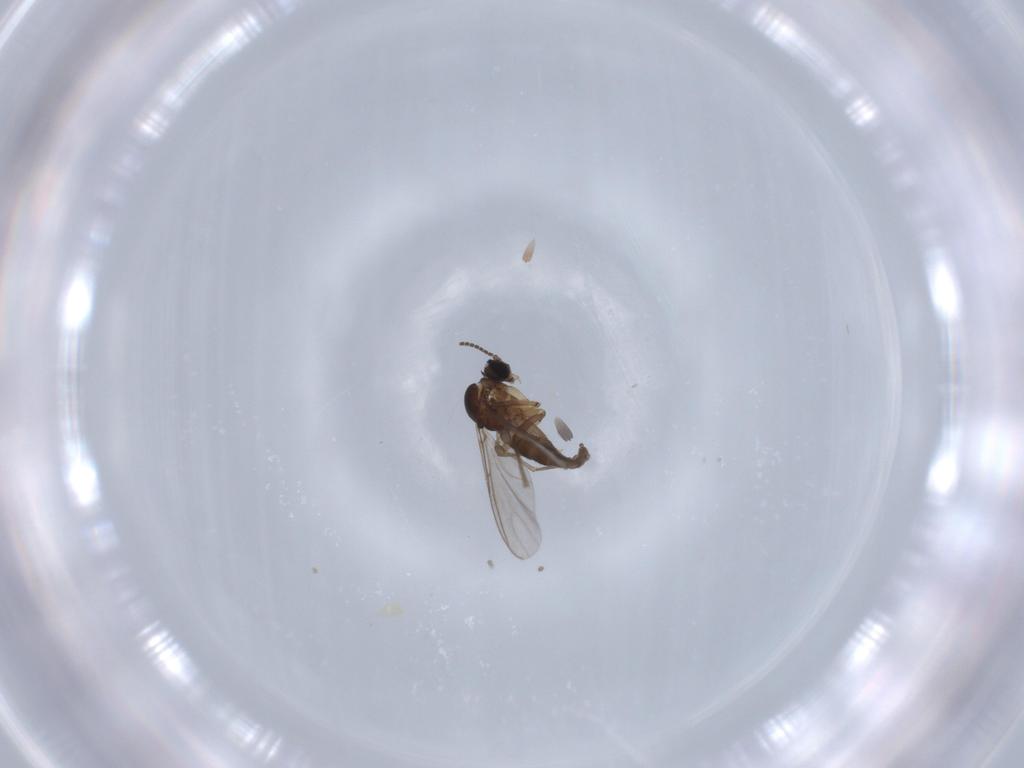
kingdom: Animalia
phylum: Arthropoda
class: Insecta
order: Diptera
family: Sciaridae
